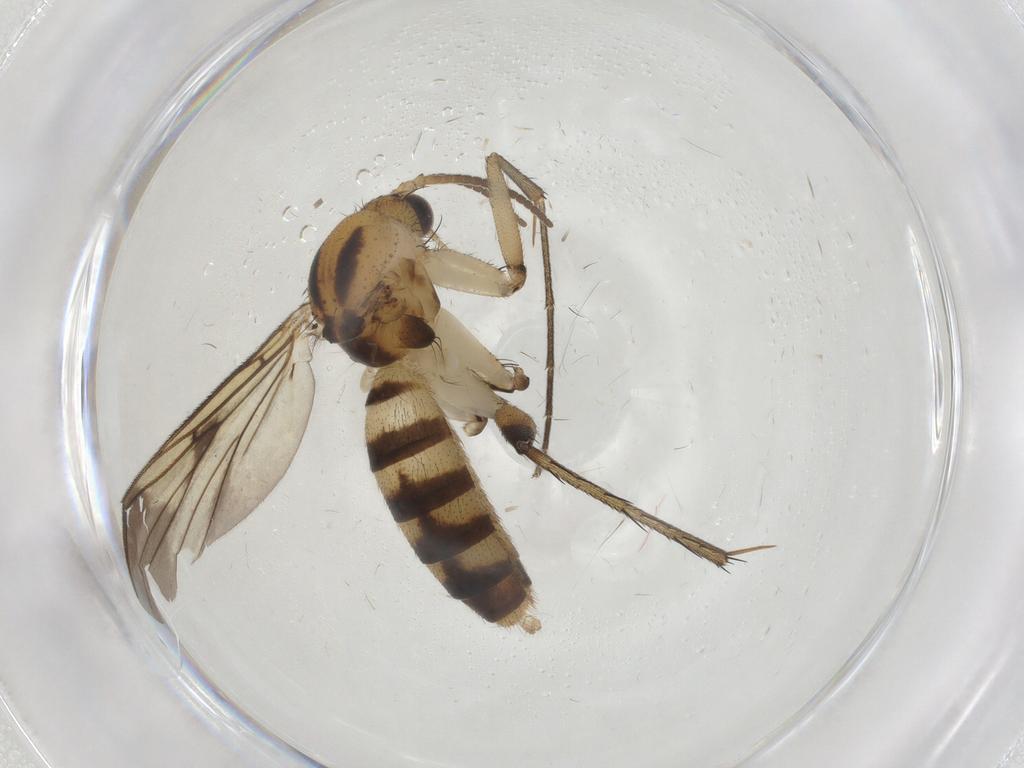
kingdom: Animalia
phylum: Arthropoda
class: Insecta
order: Diptera
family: Mycetophilidae
